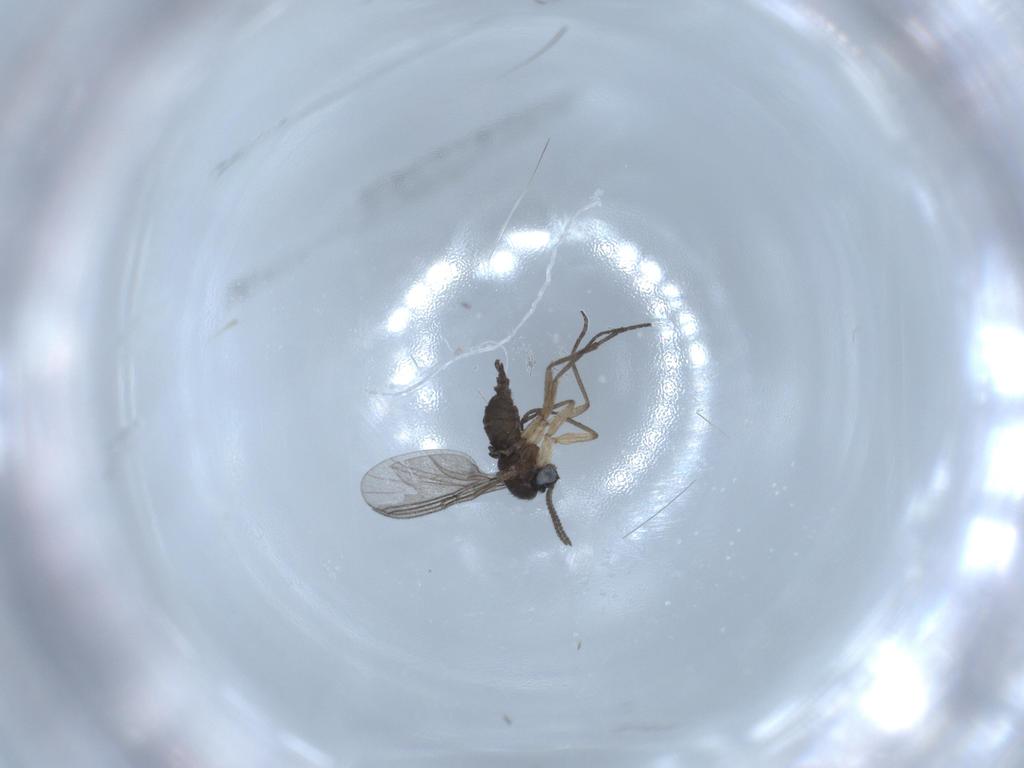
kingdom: Animalia
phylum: Arthropoda
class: Insecta
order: Diptera
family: Sciaridae
